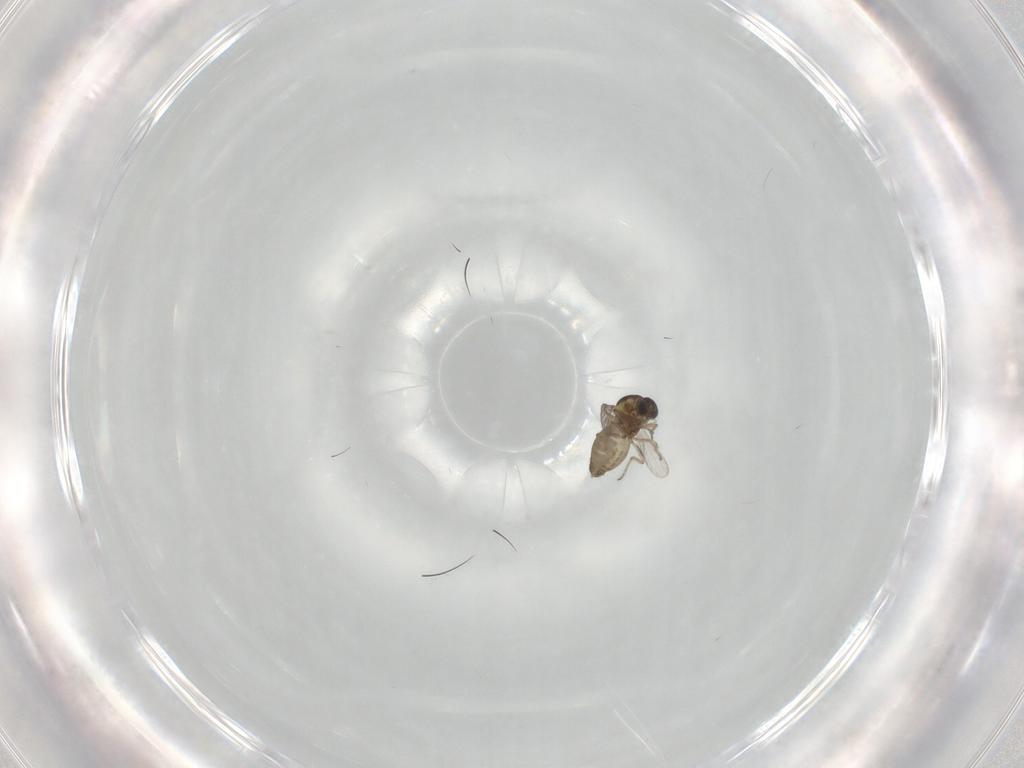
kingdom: Animalia
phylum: Arthropoda
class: Insecta
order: Diptera
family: Ceratopogonidae
